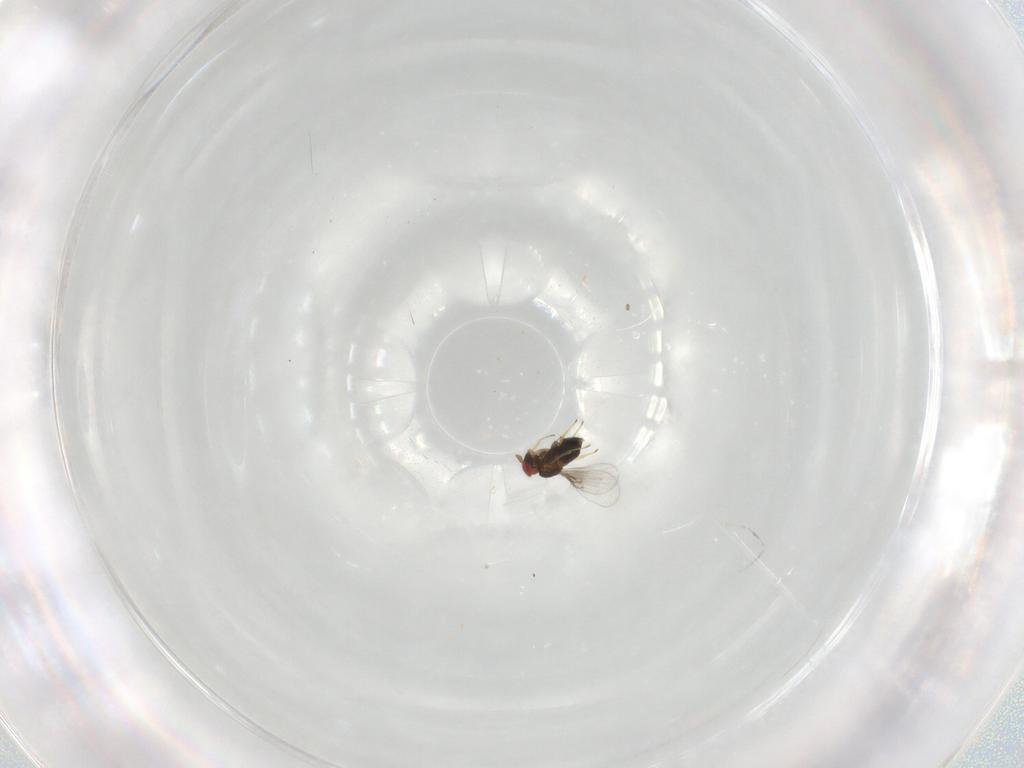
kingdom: Animalia
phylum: Arthropoda
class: Insecta
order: Hymenoptera
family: Trichogrammatidae
